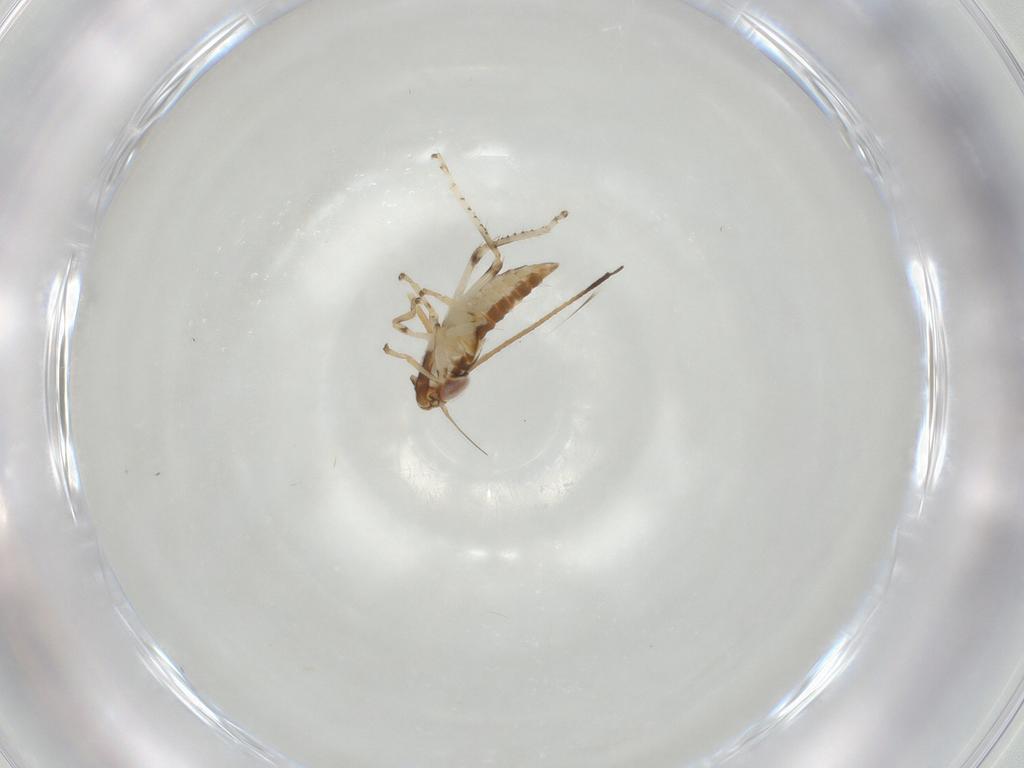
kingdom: Animalia
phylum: Arthropoda
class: Insecta
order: Hemiptera
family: Cicadellidae
